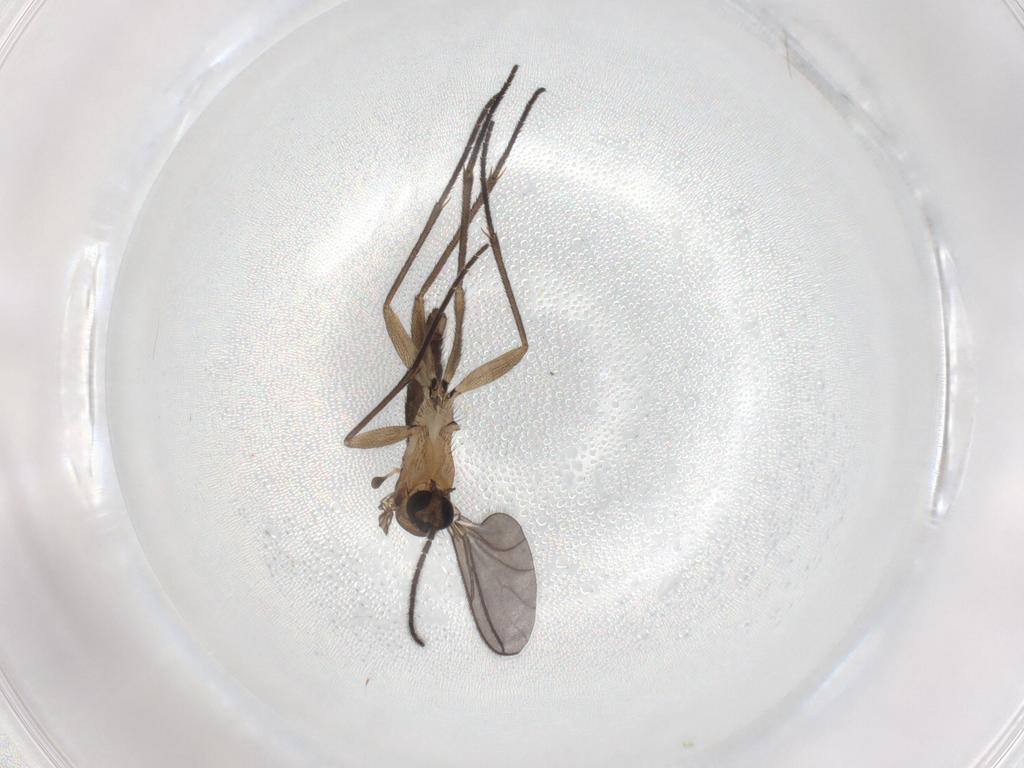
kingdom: Animalia
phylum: Arthropoda
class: Insecta
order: Diptera
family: Sciaridae
